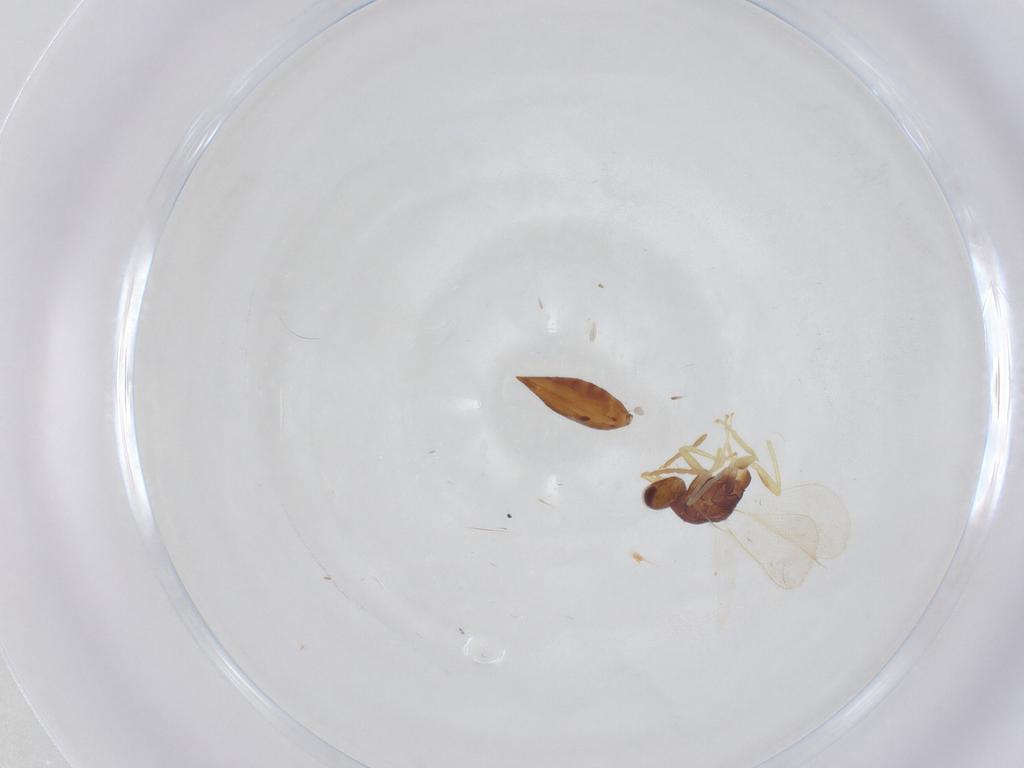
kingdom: Animalia
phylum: Arthropoda
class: Insecta
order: Hymenoptera
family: Eulophidae
